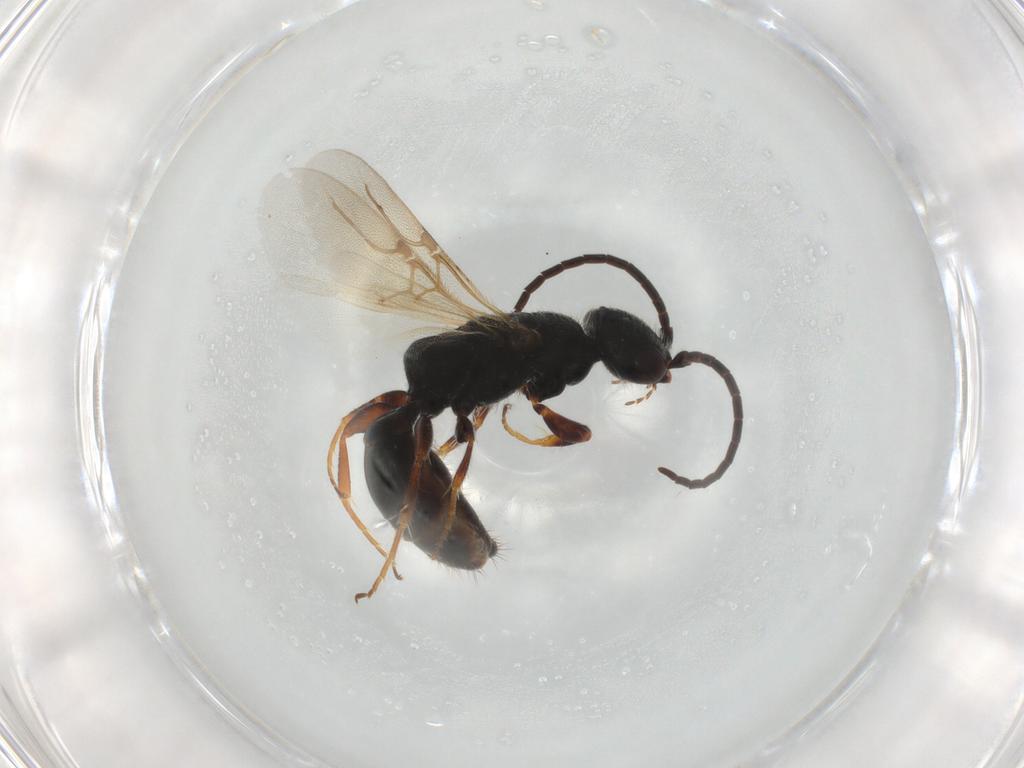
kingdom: Animalia
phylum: Arthropoda
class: Insecta
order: Hymenoptera
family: Bethylidae
